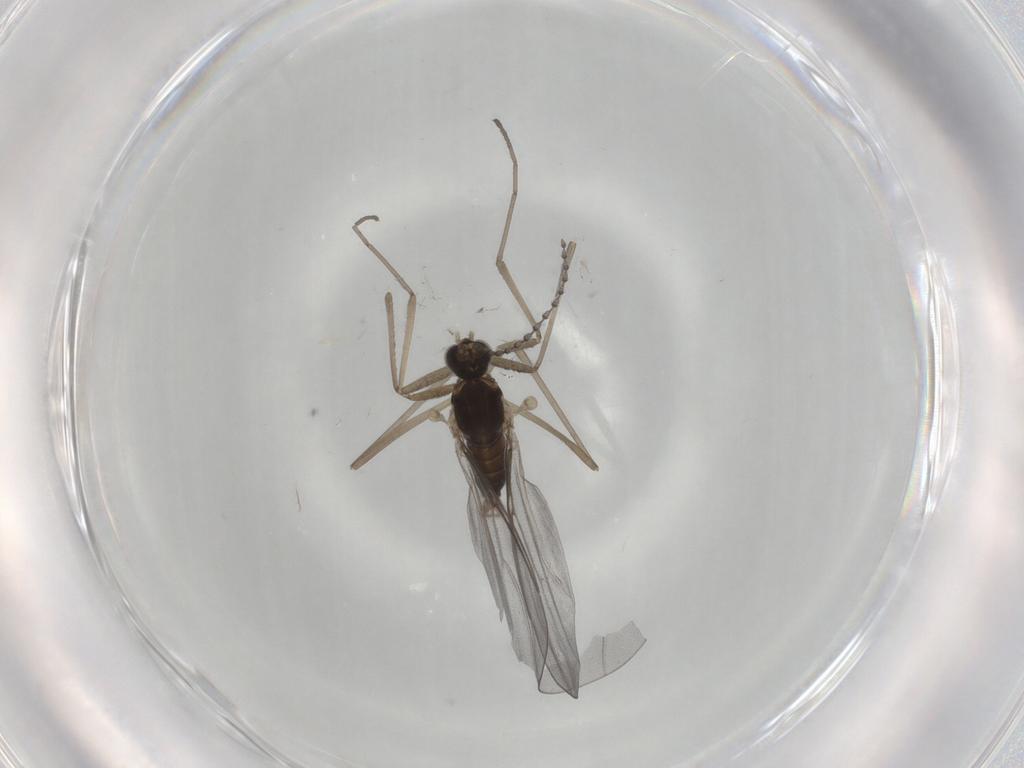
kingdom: Animalia
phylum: Arthropoda
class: Insecta
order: Diptera
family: Cecidomyiidae
